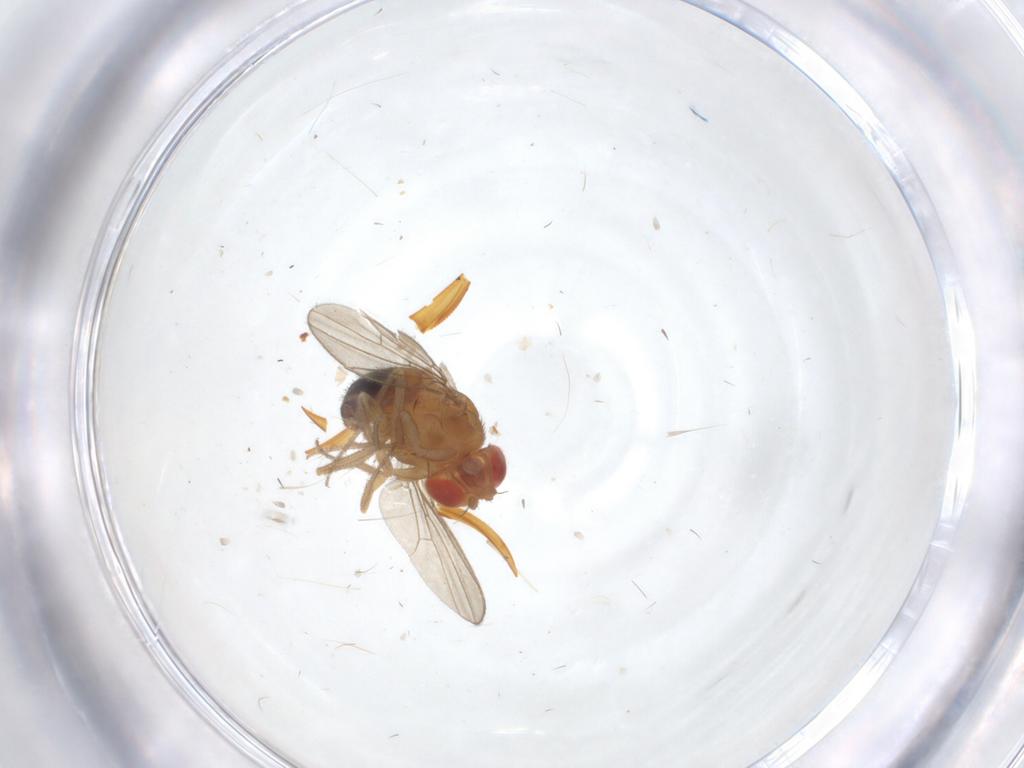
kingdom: Animalia
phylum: Arthropoda
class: Insecta
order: Diptera
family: Drosophilidae
